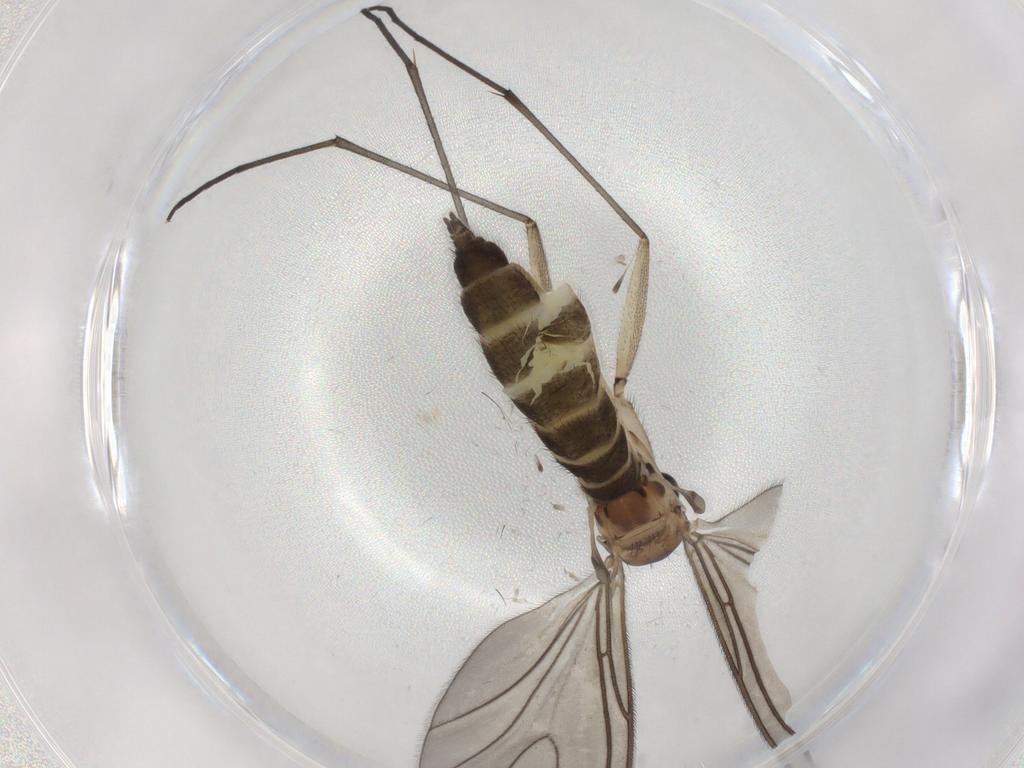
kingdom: Animalia
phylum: Arthropoda
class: Insecta
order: Diptera
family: Sciaridae
